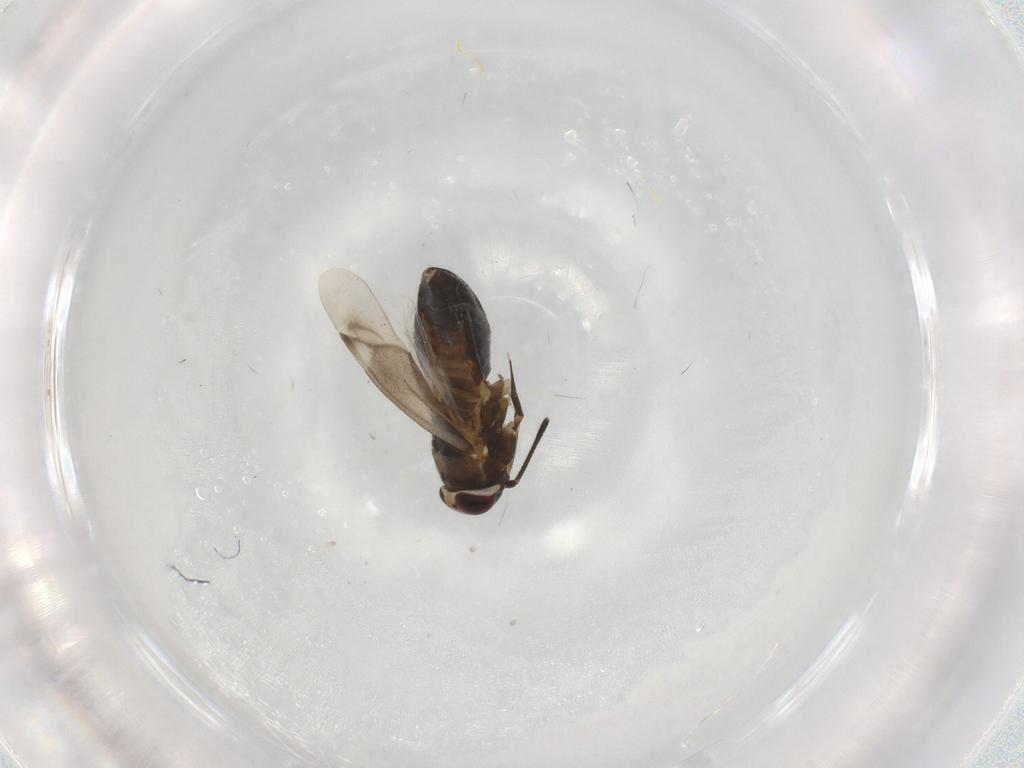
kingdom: Animalia
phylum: Arthropoda
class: Insecta
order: Hemiptera
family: Miridae
